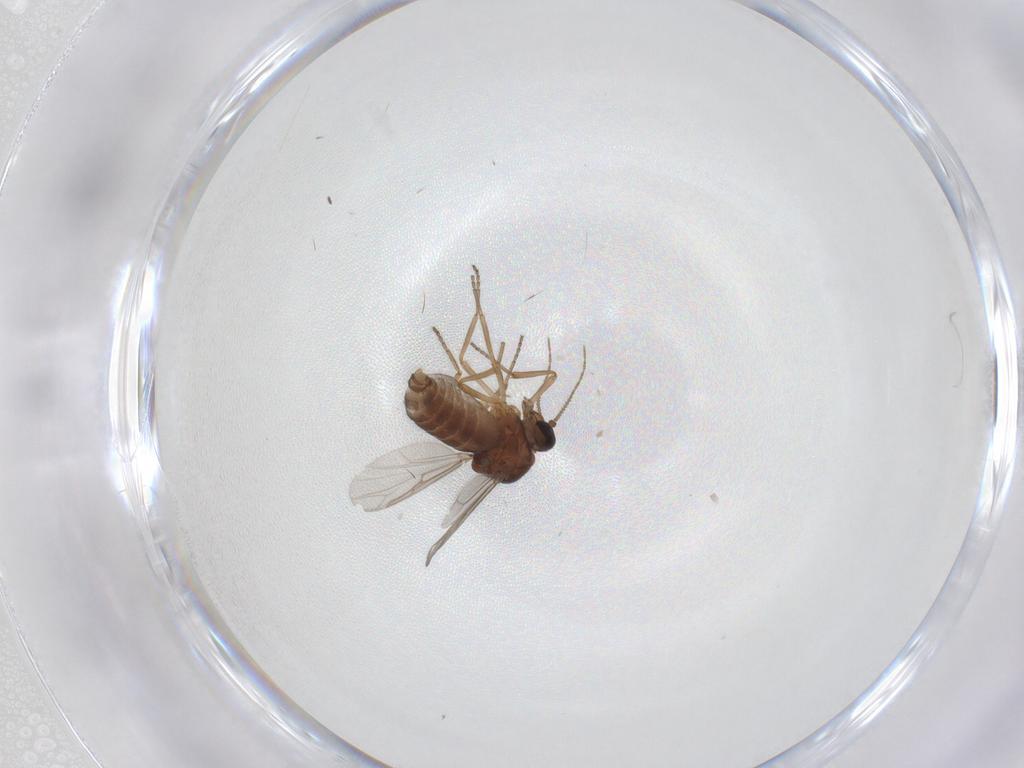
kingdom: Animalia
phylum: Arthropoda
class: Insecta
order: Diptera
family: Ceratopogonidae
